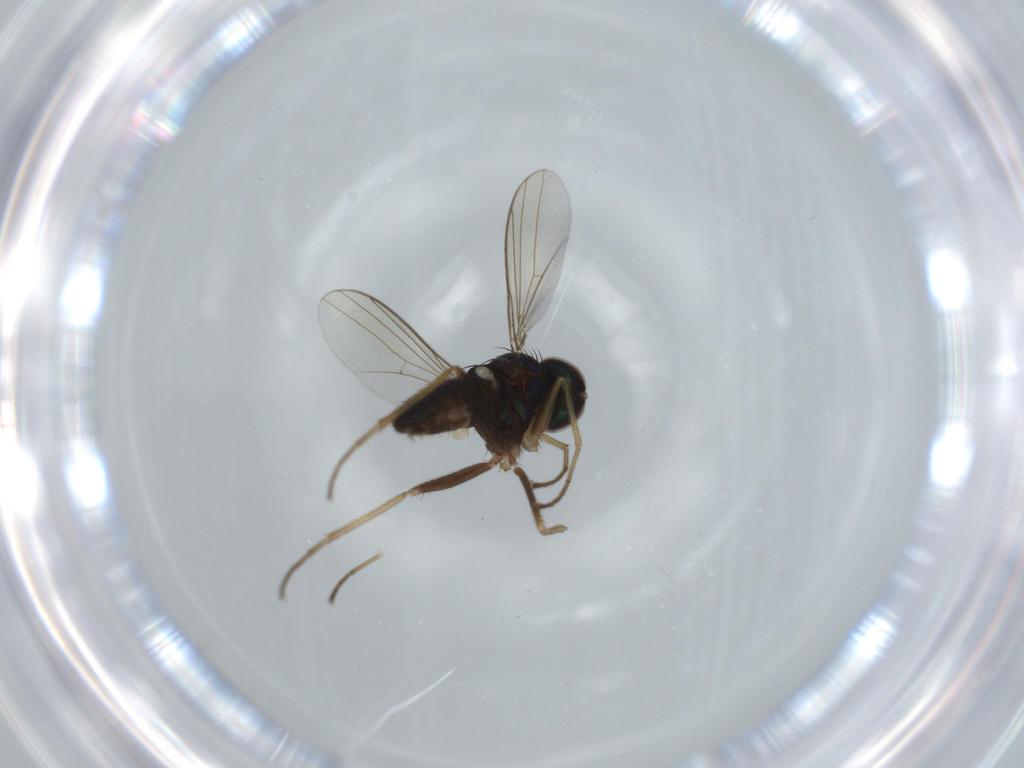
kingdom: Animalia
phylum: Arthropoda
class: Insecta
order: Diptera
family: Dolichopodidae
